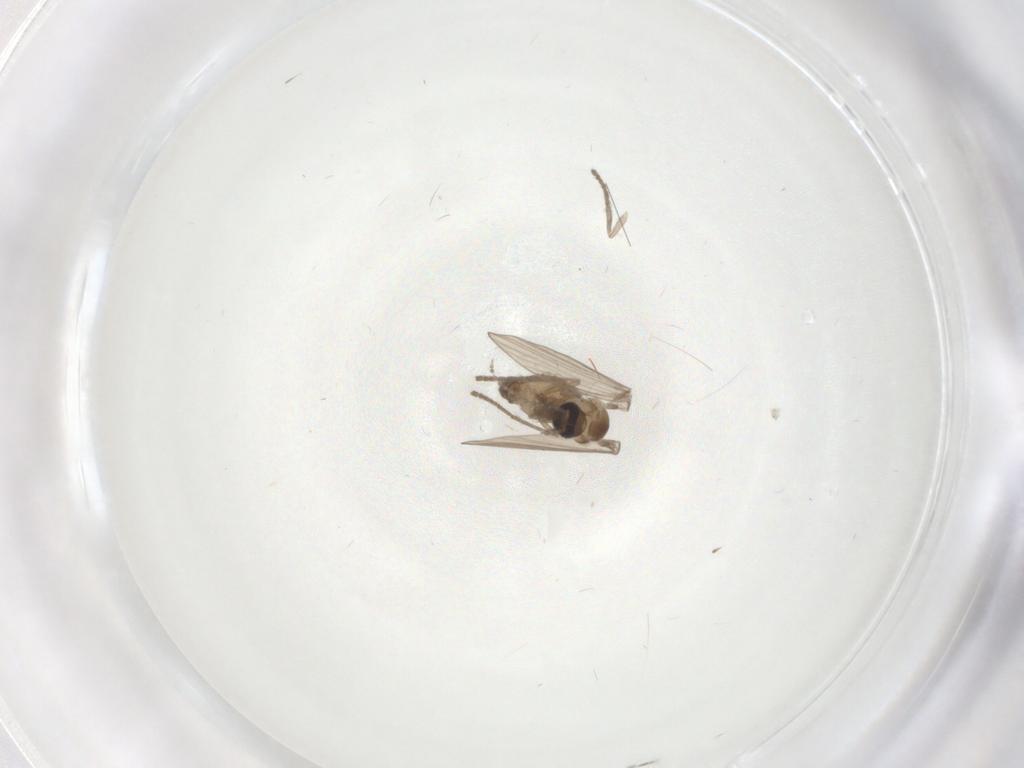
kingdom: Animalia
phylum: Arthropoda
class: Insecta
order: Diptera
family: Psychodidae
